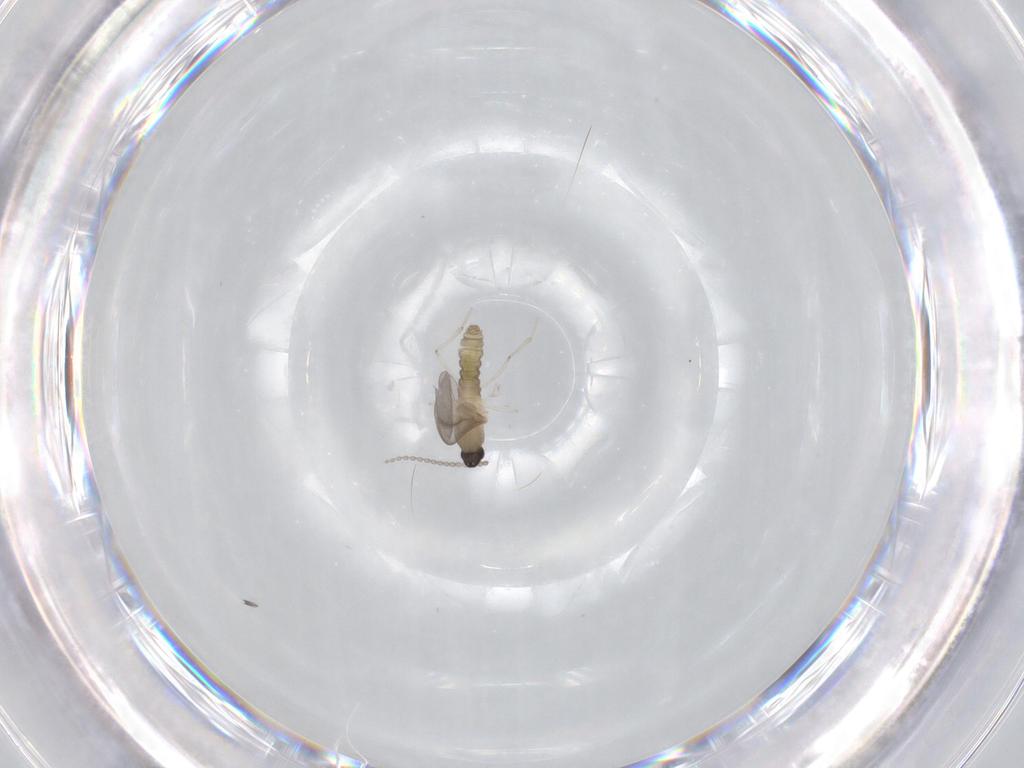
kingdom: Animalia
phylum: Arthropoda
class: Insecta
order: Diptera
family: Cecidomyiidae
